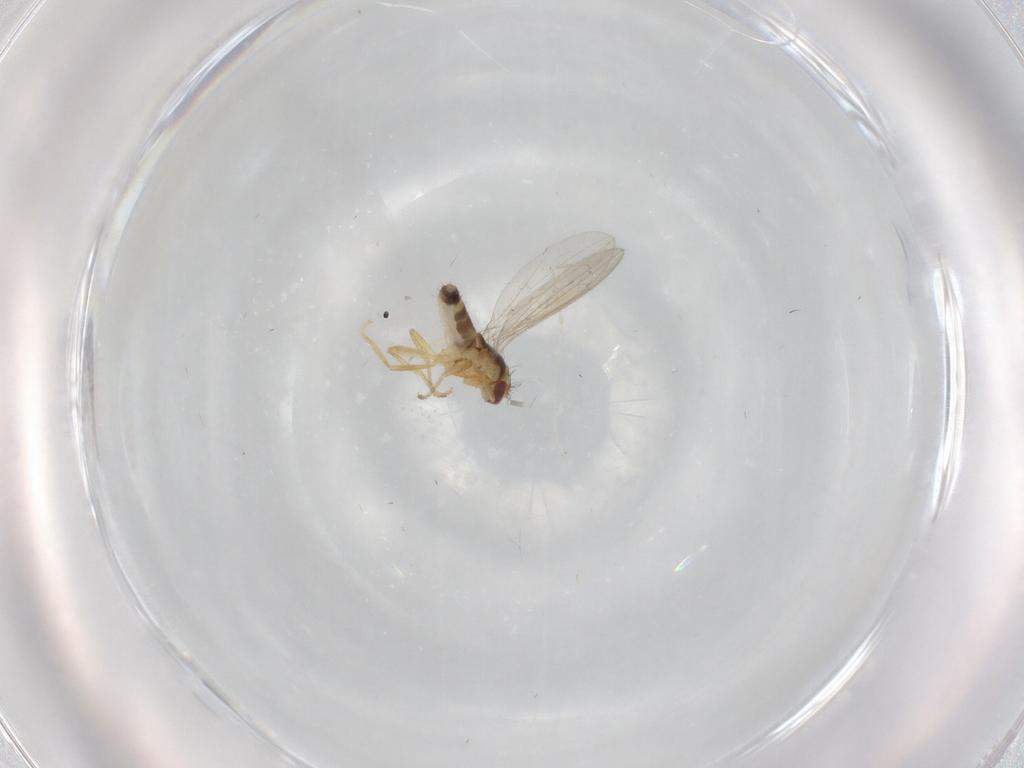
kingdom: Animalia
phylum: Arthropoda
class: Insecta
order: Diptera
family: Periscelididae
